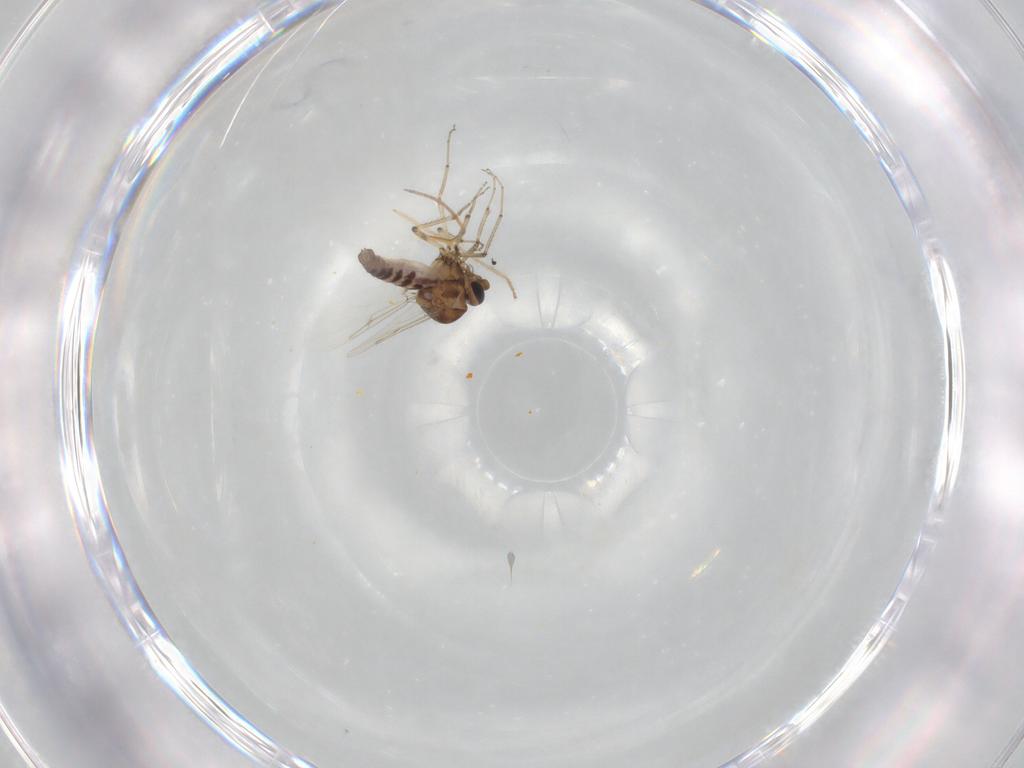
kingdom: Animalia
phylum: Arthropoda
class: Insecta
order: Diptera
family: Ceratopogonidae
